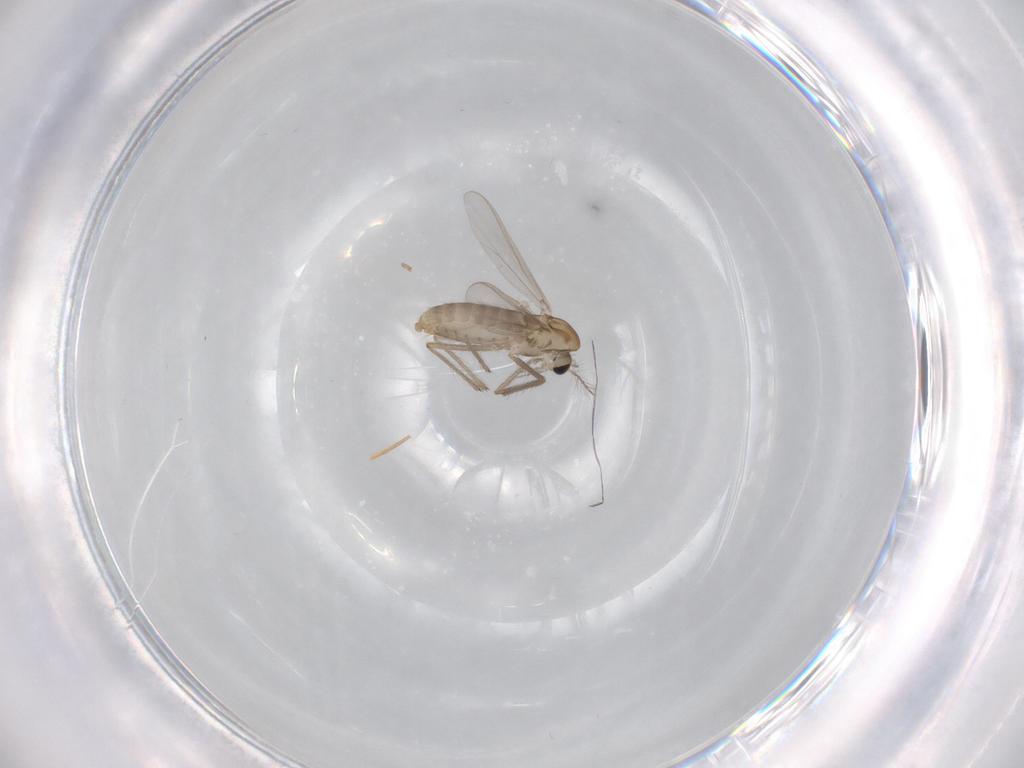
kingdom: Animalia
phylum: Arthropoda
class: Insecta
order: Diptera
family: Chironomidae
